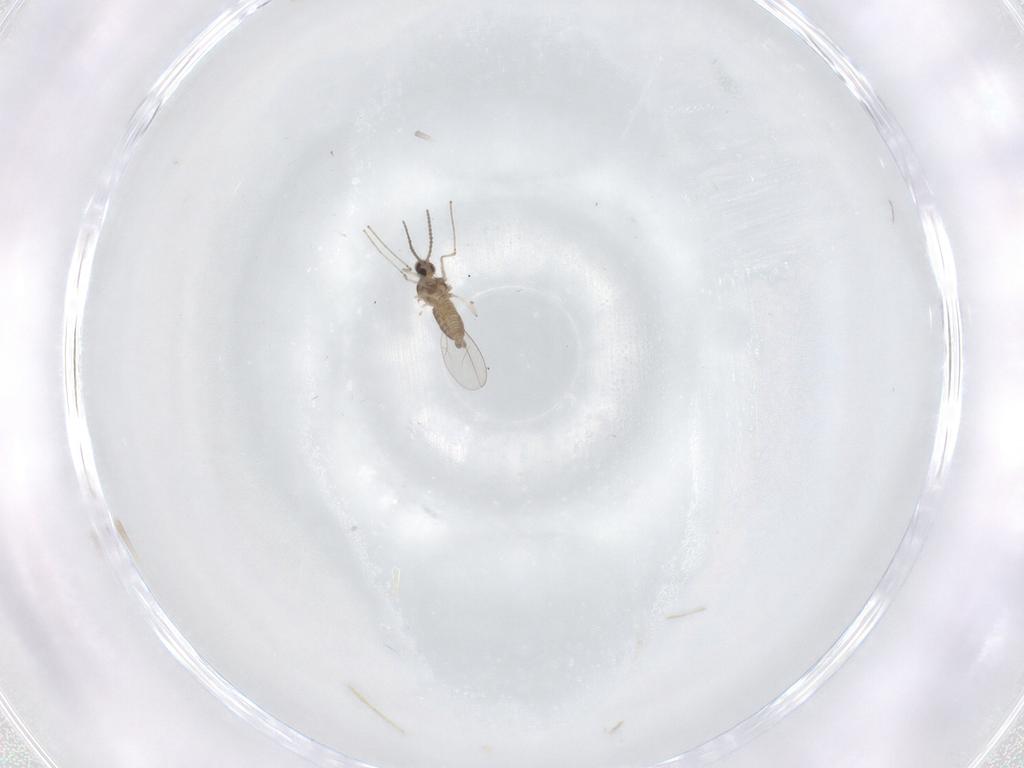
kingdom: Animalia
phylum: Arthropoda
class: Insecta
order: Diptera
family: Cecidomyiidae
